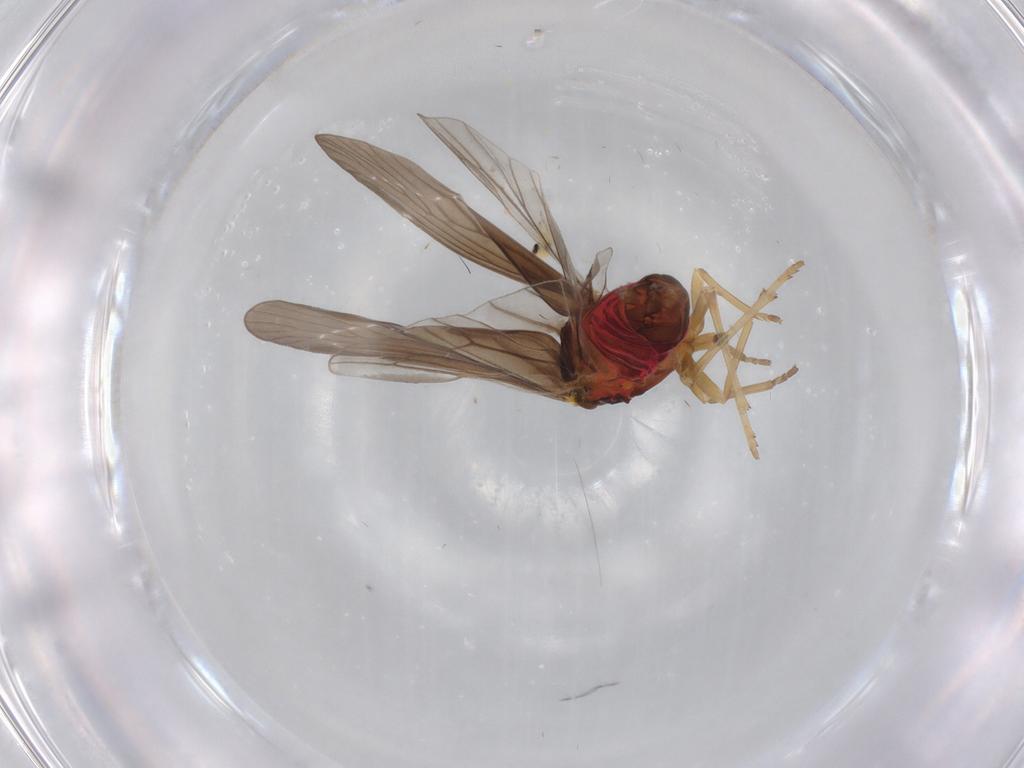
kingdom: Animalia
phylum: Arthropoda
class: Insecta
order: Hemiptera
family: Derbidae
